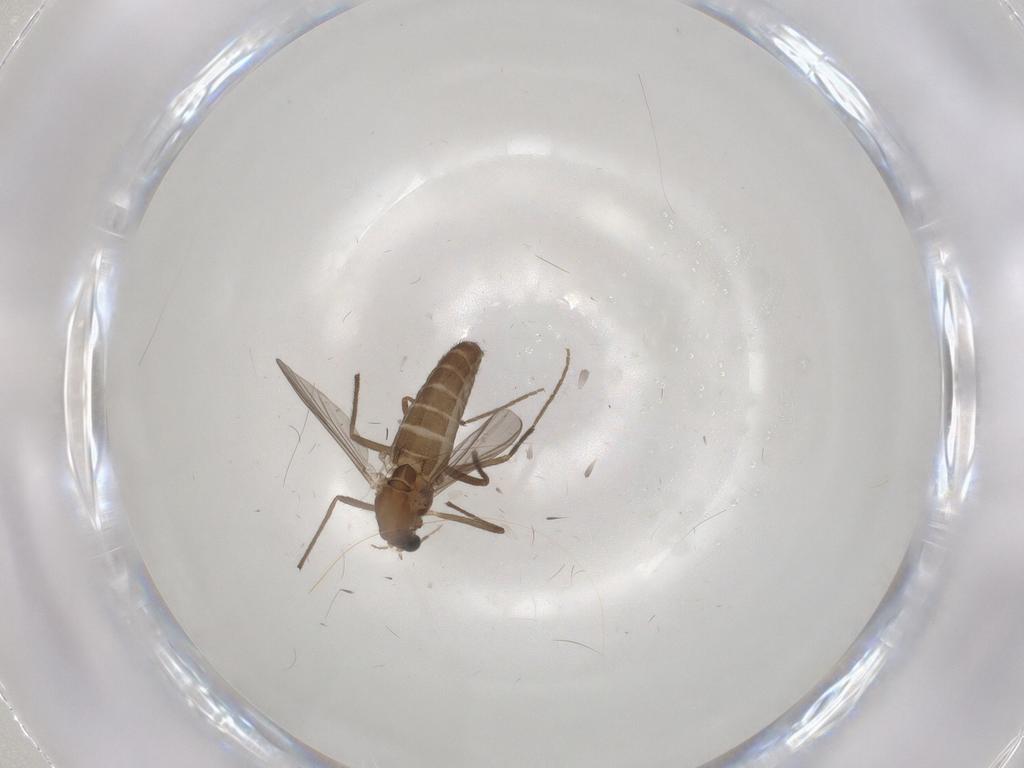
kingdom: Animalia
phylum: Arthropoda
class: Insecta
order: Diptera
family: Chironomidae
